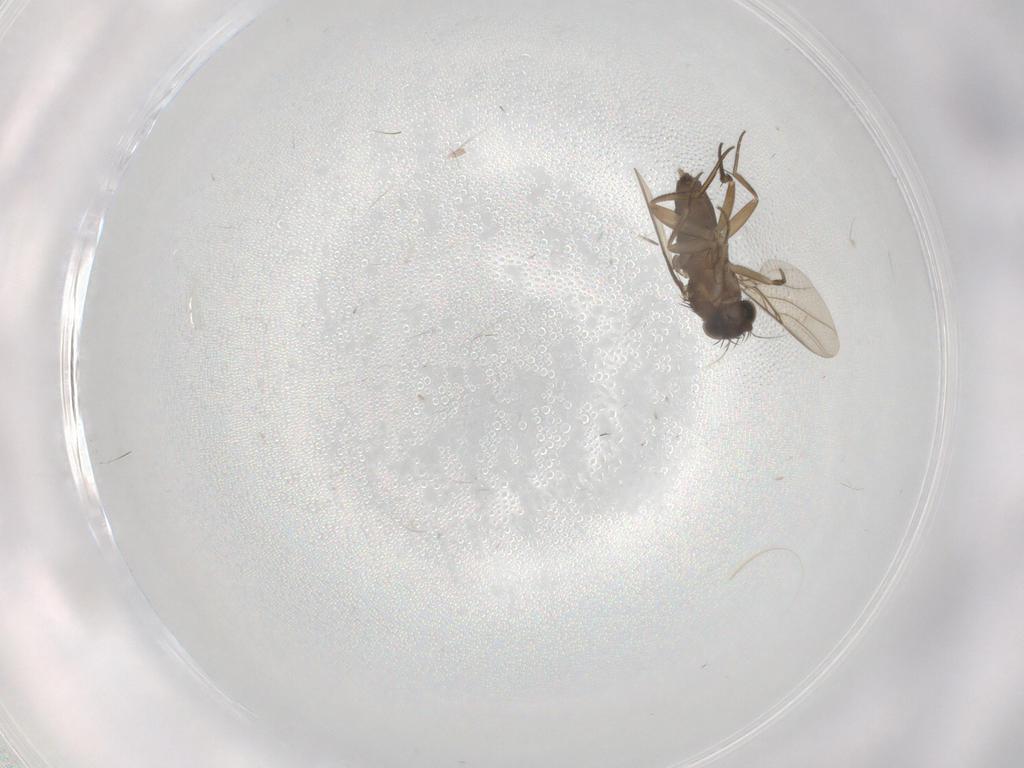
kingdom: Animalia
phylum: Arthropoda
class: Insecta
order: Diptera
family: Phoridae
